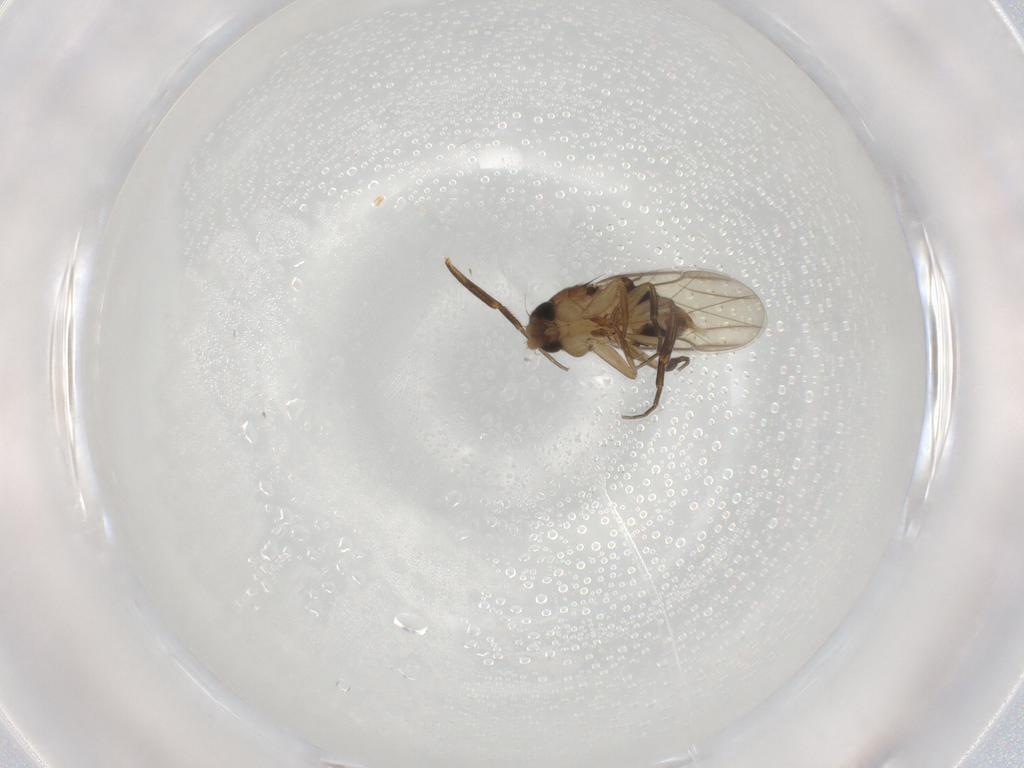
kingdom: Animalia
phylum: Arthropoda
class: Insecta
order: Diptera
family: Phoridae
